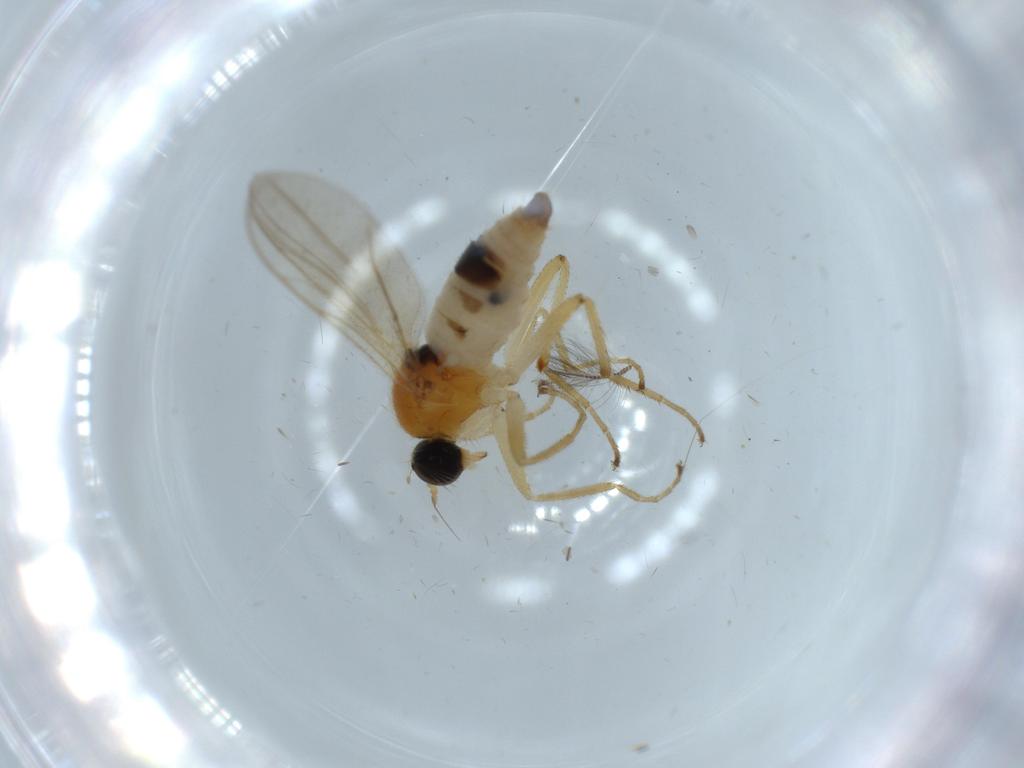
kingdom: Animalia
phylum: Arthropoda
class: Insecta
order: Diptera
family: Hybotidae
